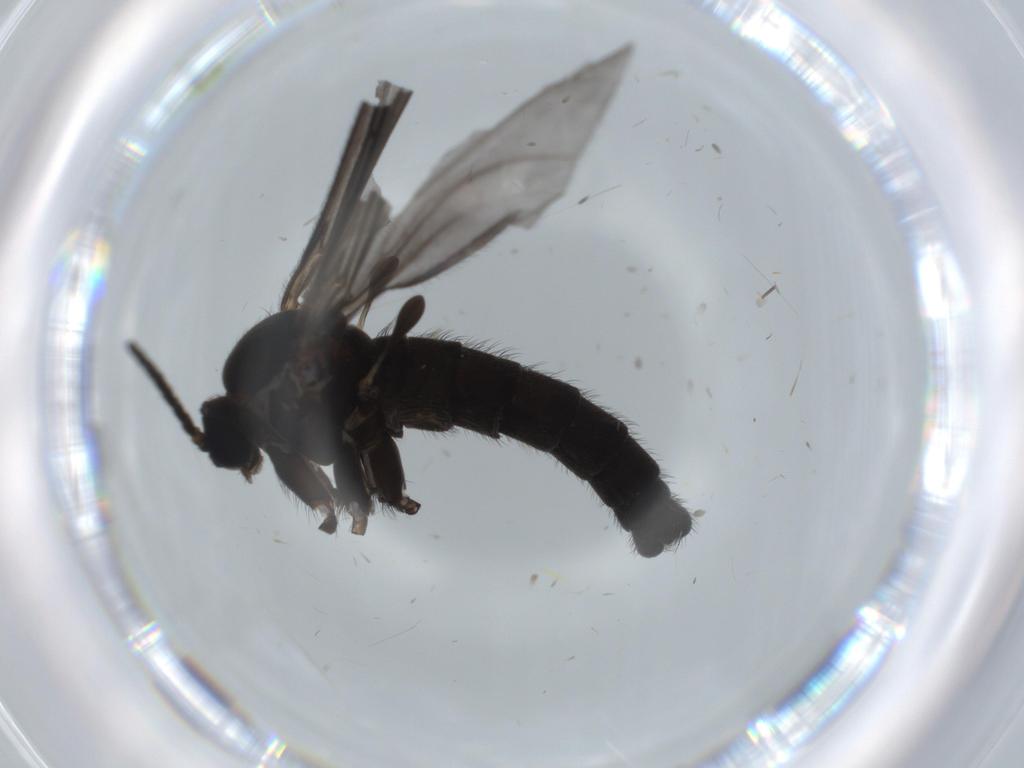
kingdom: Animalia
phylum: Arthropoda
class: Insecta
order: Diptera
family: Sciaridae
